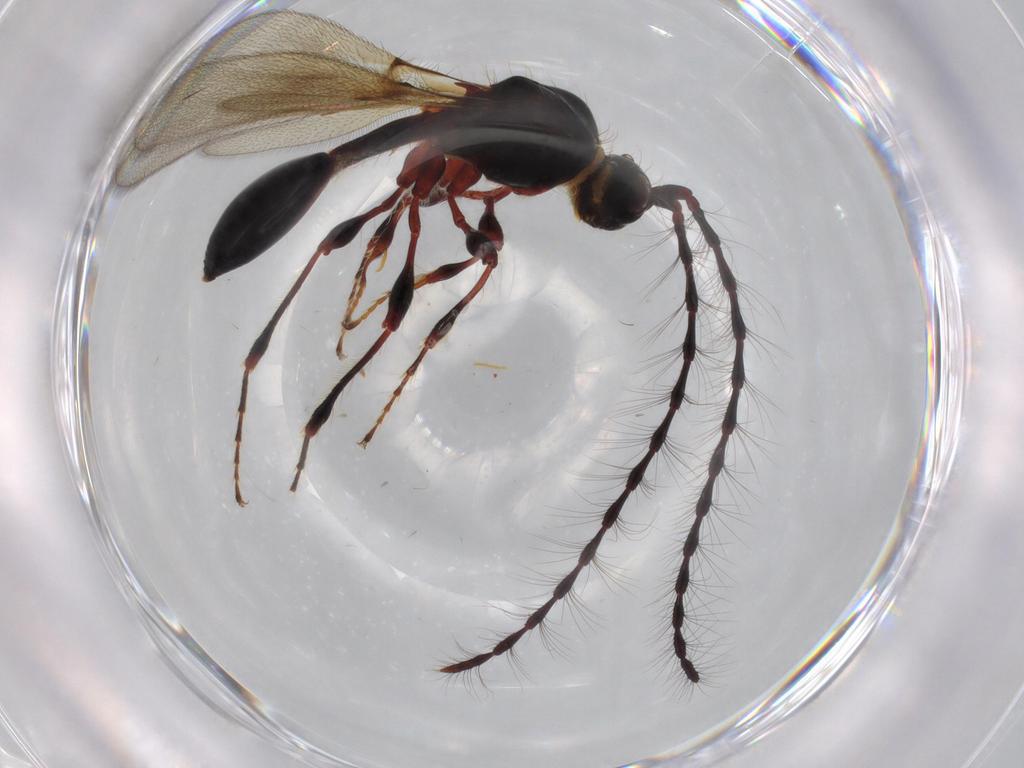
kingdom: Animalia
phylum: Arthropoda
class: Insecta
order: Hymenoptera
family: Diapriidae
